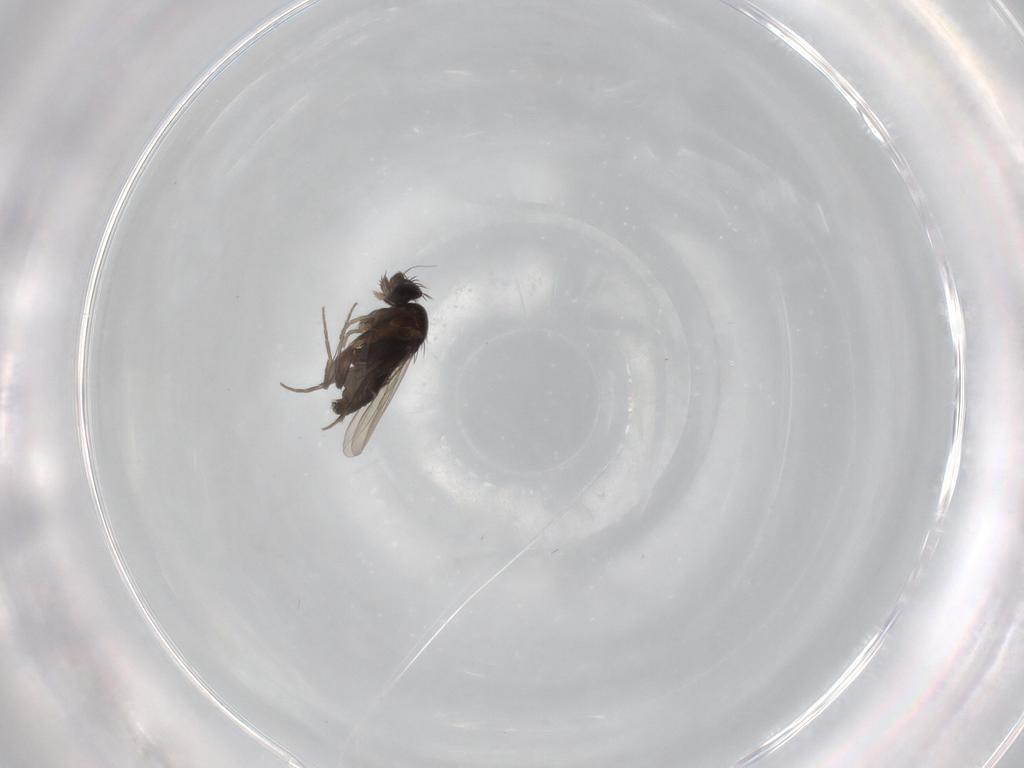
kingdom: Animalia
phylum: Arthropoda
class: Insecta
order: Diptera
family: Phoridae
